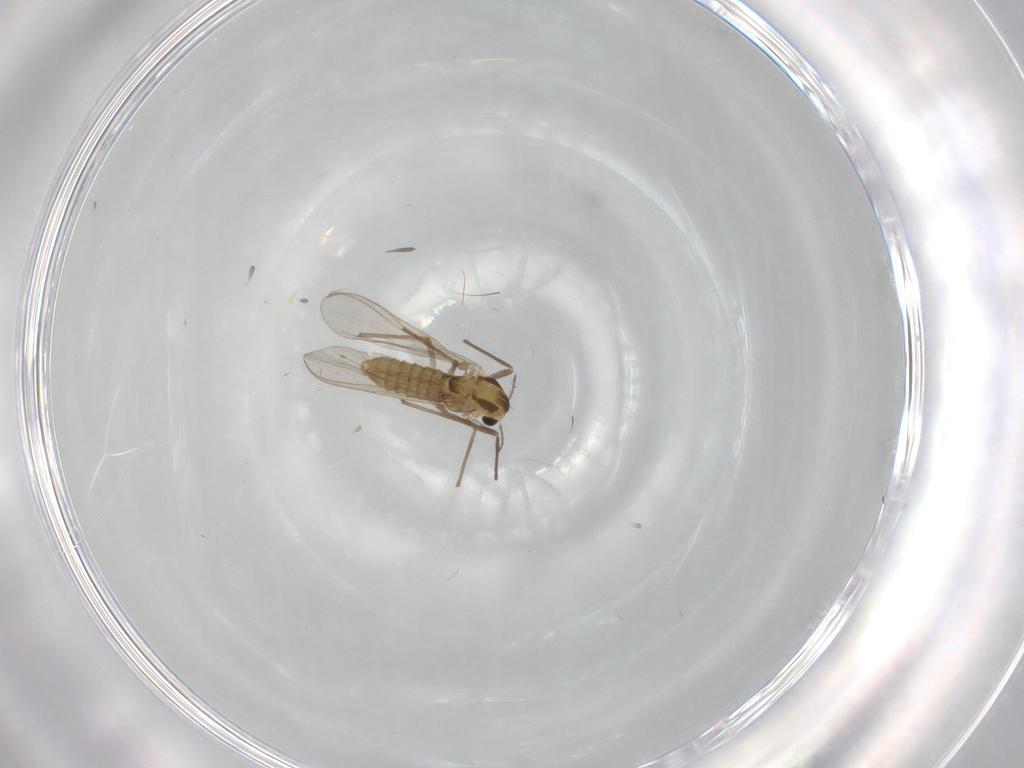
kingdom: Animalia
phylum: Arthropoda
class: Insecta
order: Diptera
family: Chironomidae
